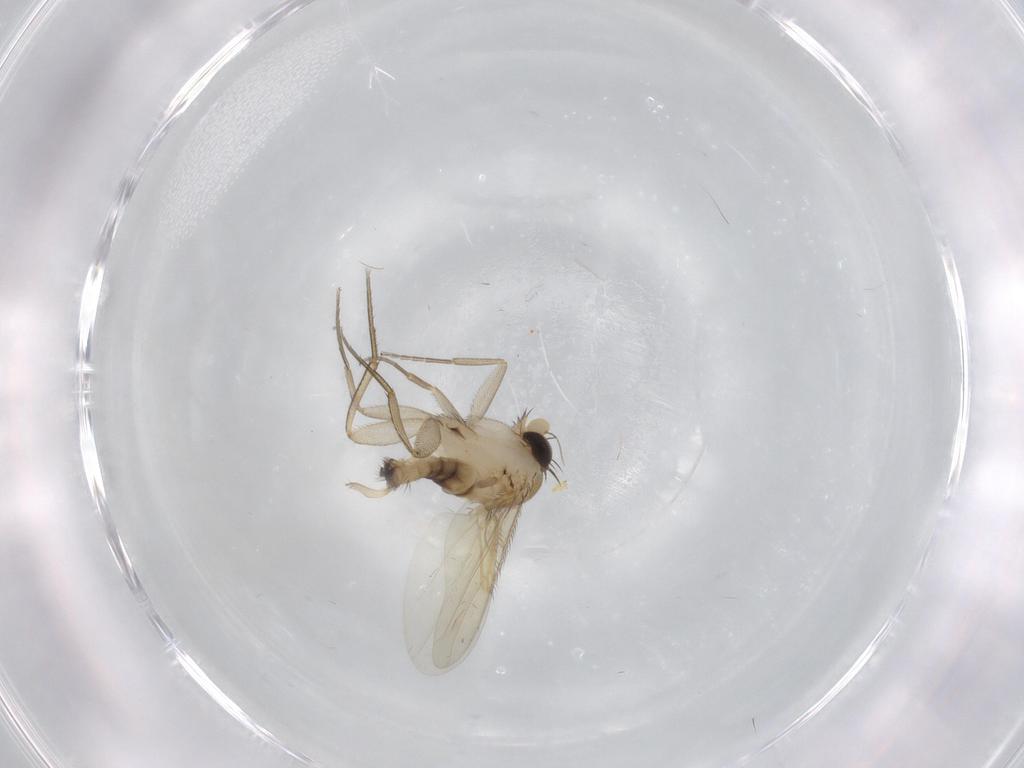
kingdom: Animalia
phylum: Arthropoda
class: Insecta
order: Diptera
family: Phoridae
